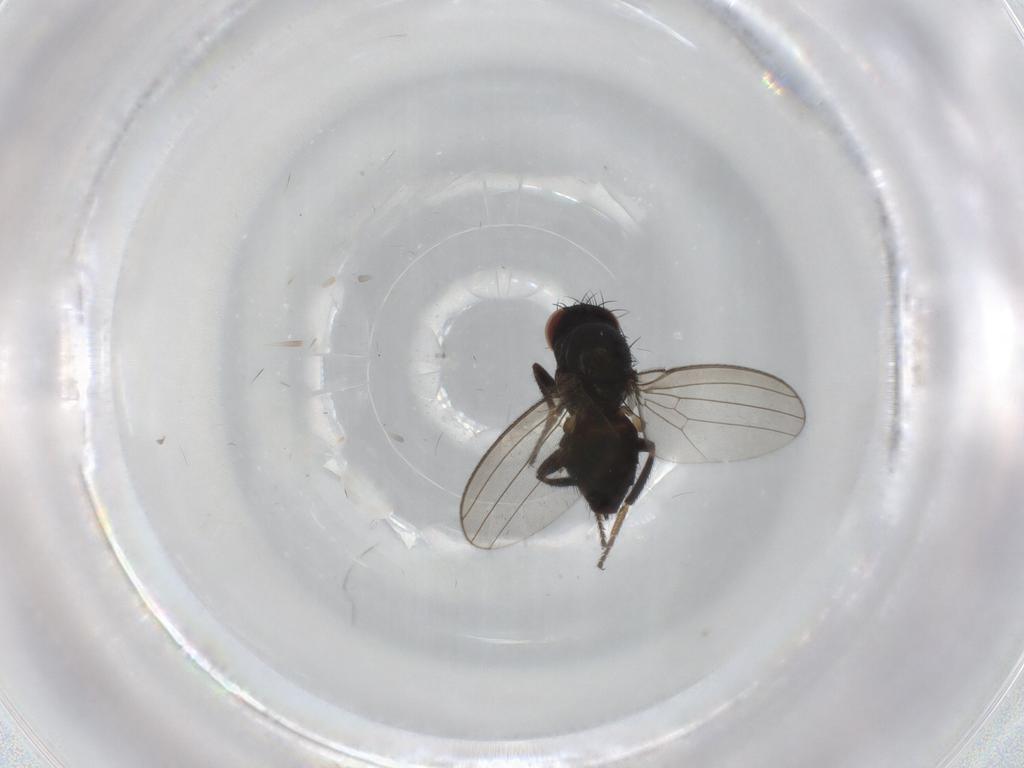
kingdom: Animalia
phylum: Arthropoda
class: Insecta
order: Diptera
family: Milichiidae
